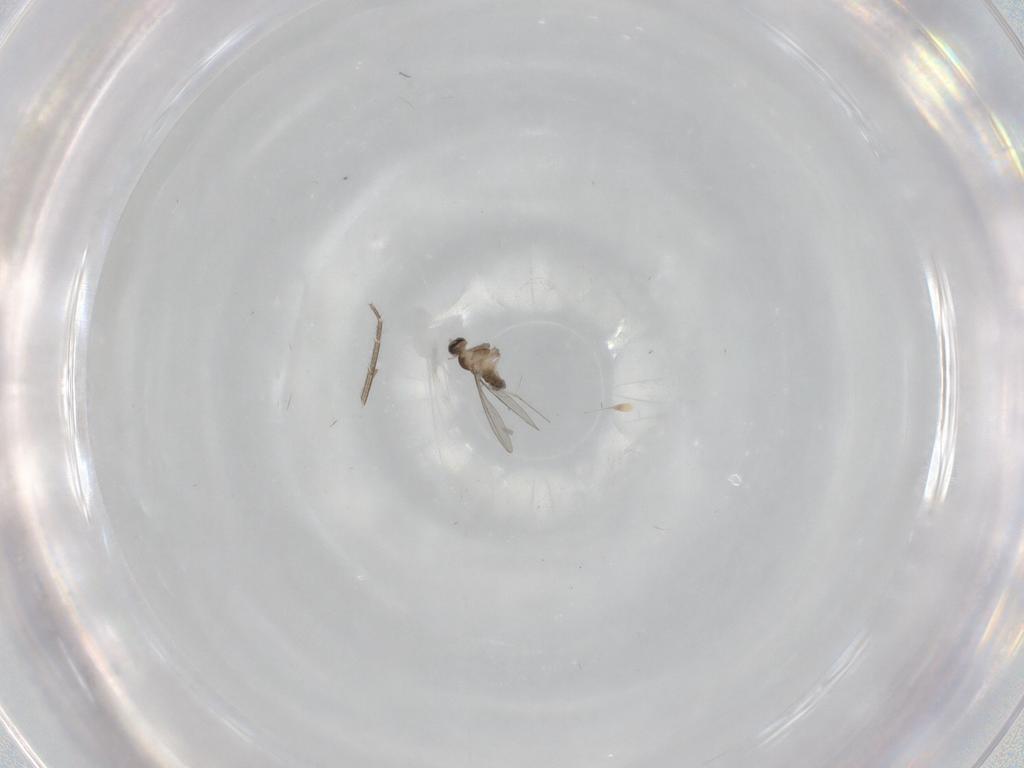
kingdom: Animalia
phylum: Arthropoda
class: Insecta
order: Diptera
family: Cecidomyiidae
